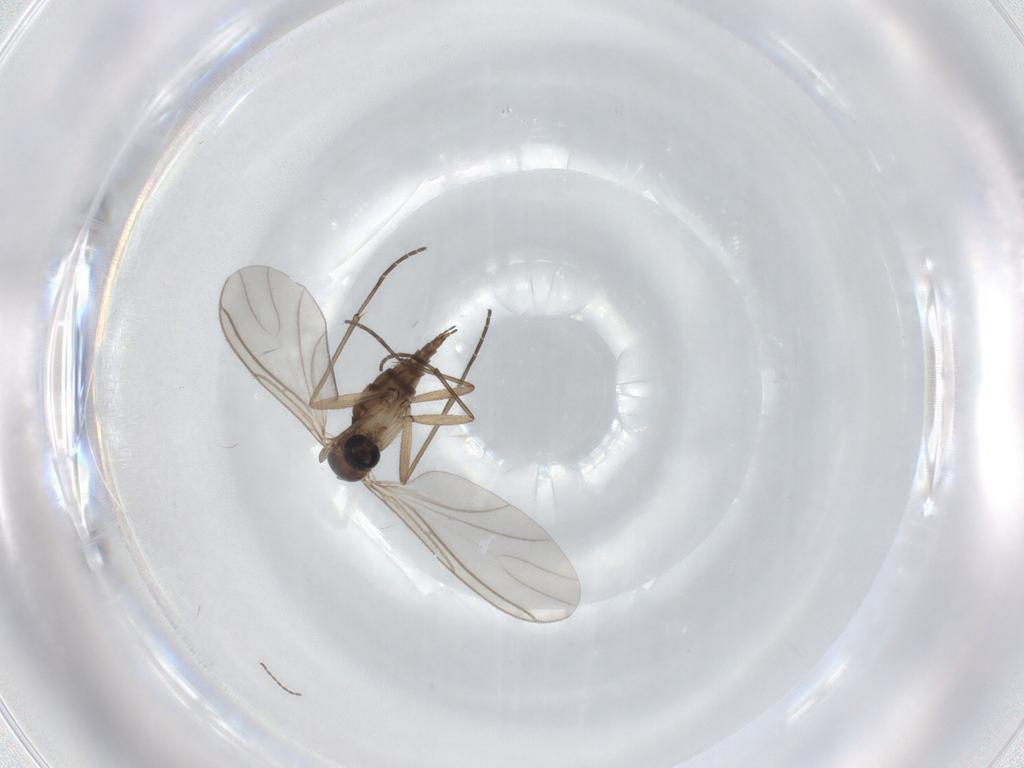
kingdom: Animalia
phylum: Arthropoda
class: Insecta
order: Diptera
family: Sciaridae
